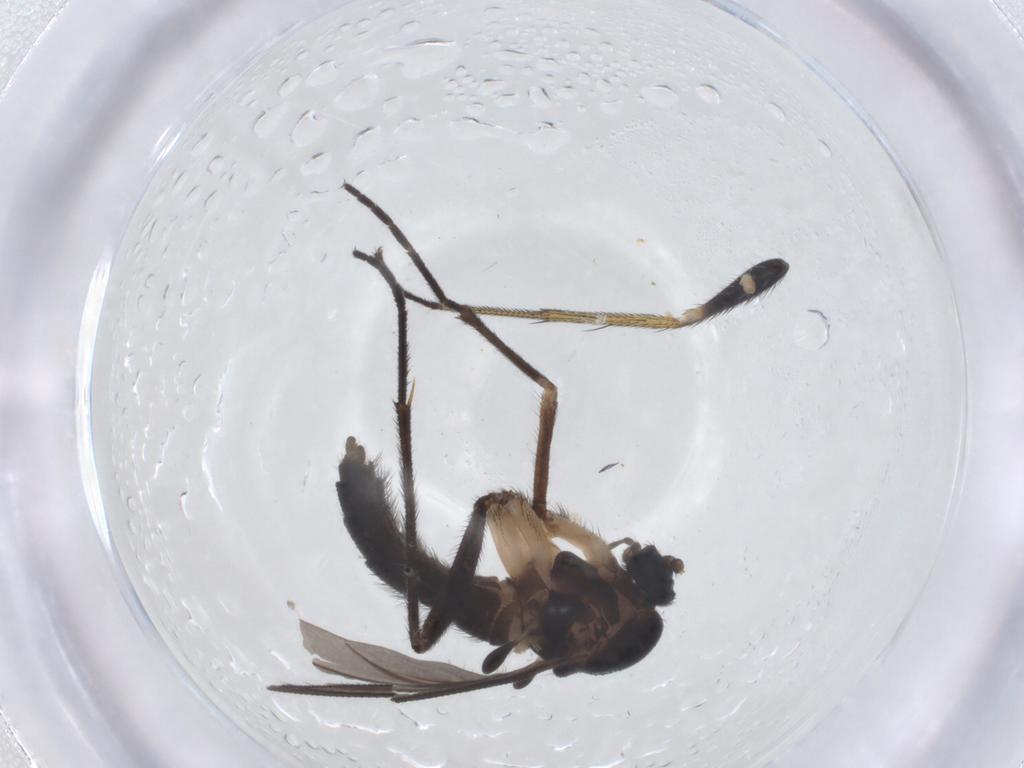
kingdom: Animalia
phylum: Arthropoda
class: Insecta
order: Diptera
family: Sciaridae
